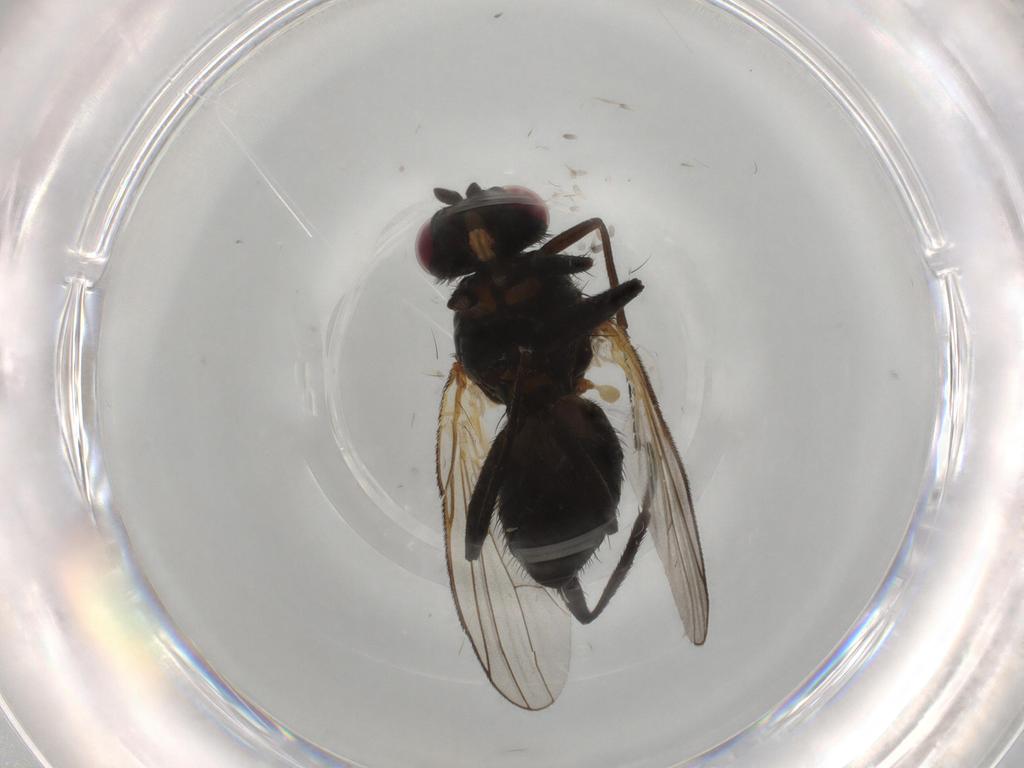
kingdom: Animalia
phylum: Arthropoda
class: Insecta
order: Diptera
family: Fannia
